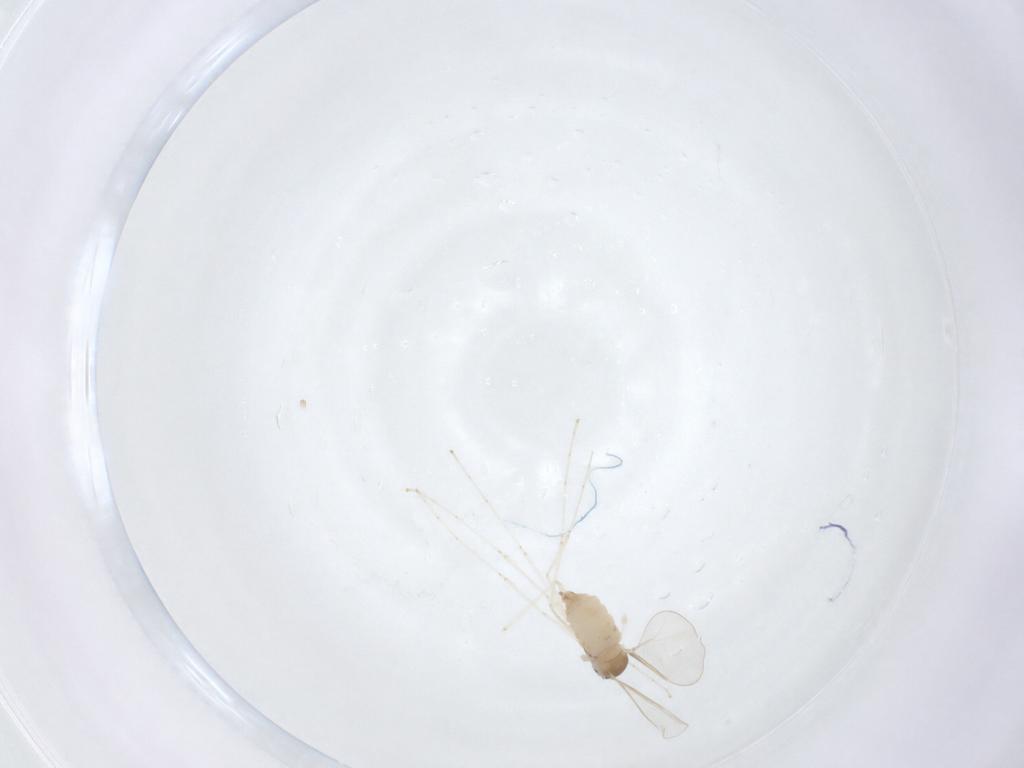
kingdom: Animalia
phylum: Arthropoda
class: Insecta
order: Diptera
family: Cecidomyiidae
